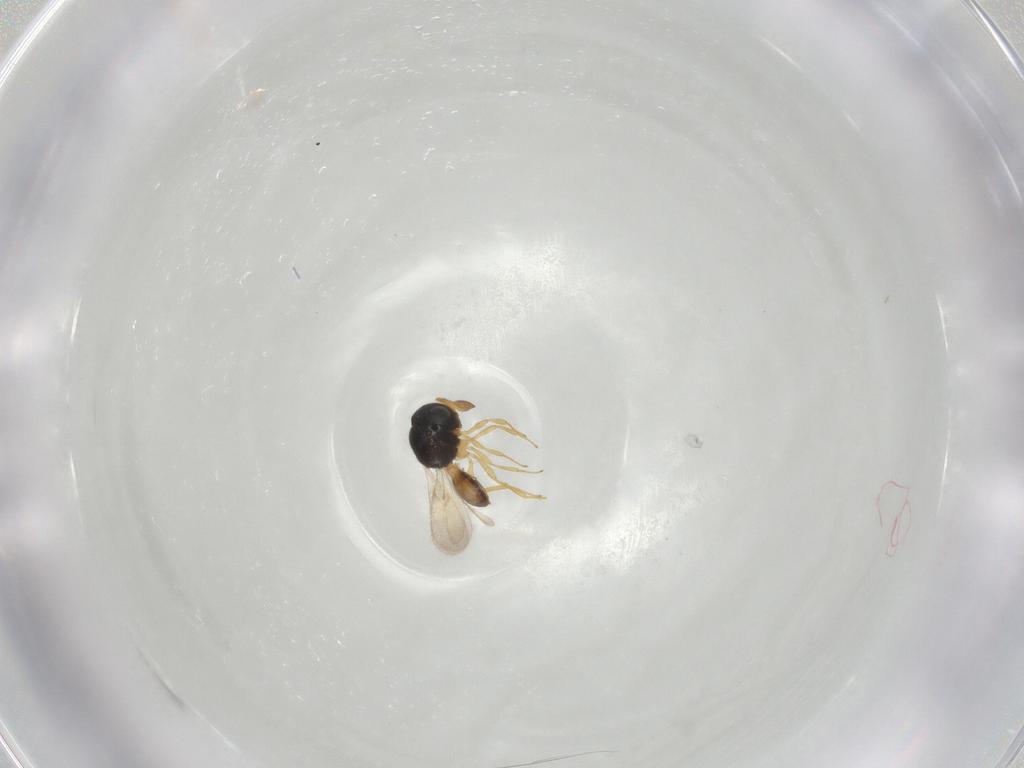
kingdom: Animalia
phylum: Arthropoda
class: Insecta
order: Hymenoptera
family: Scelionidae
